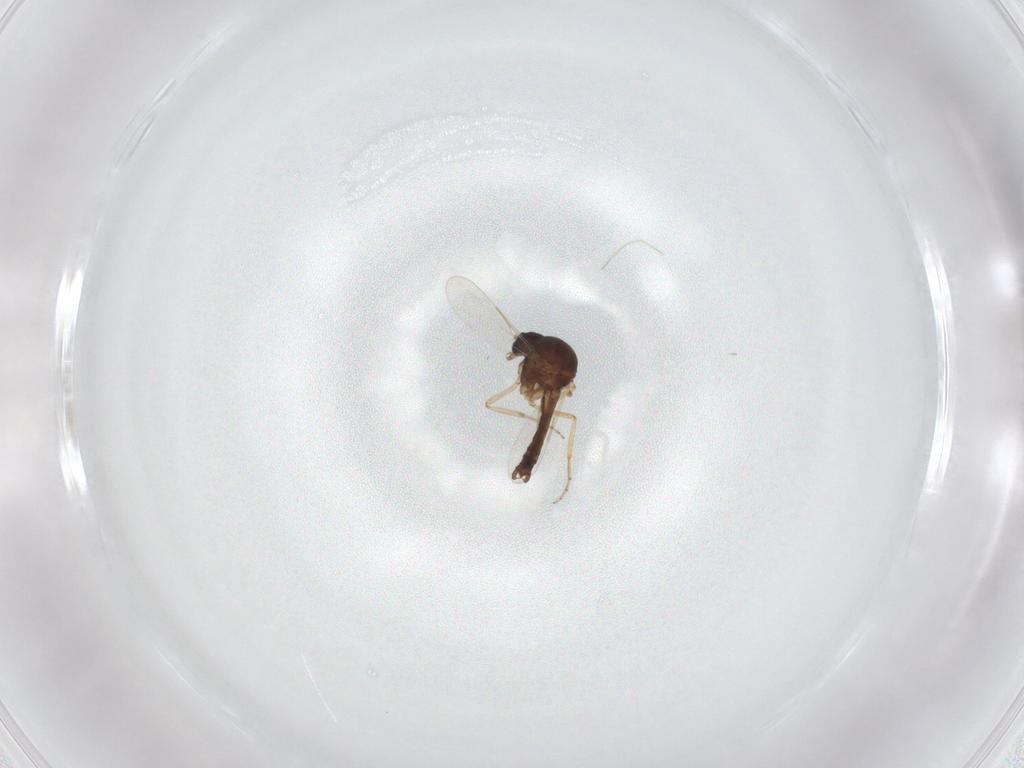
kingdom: Animalia
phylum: Arthropoda
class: Insecta
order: Diptera
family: Ceratopogonidae
